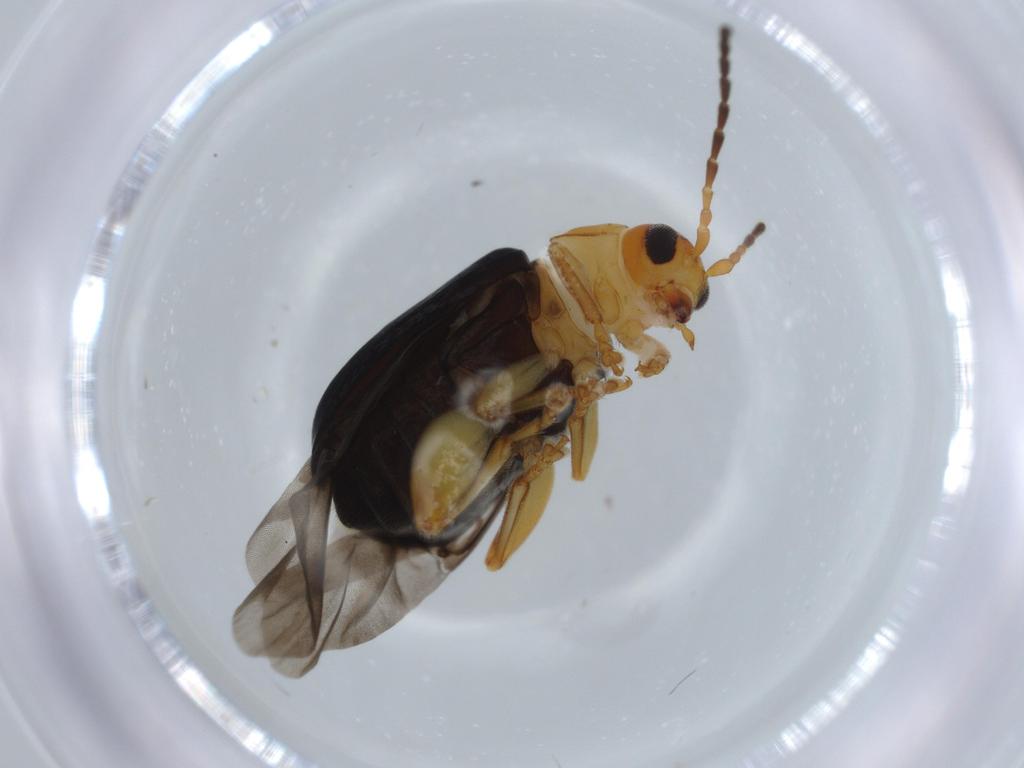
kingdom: Animalia
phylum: Arthropoda
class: Insecta
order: Coleoptera
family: Chrysomelidae
